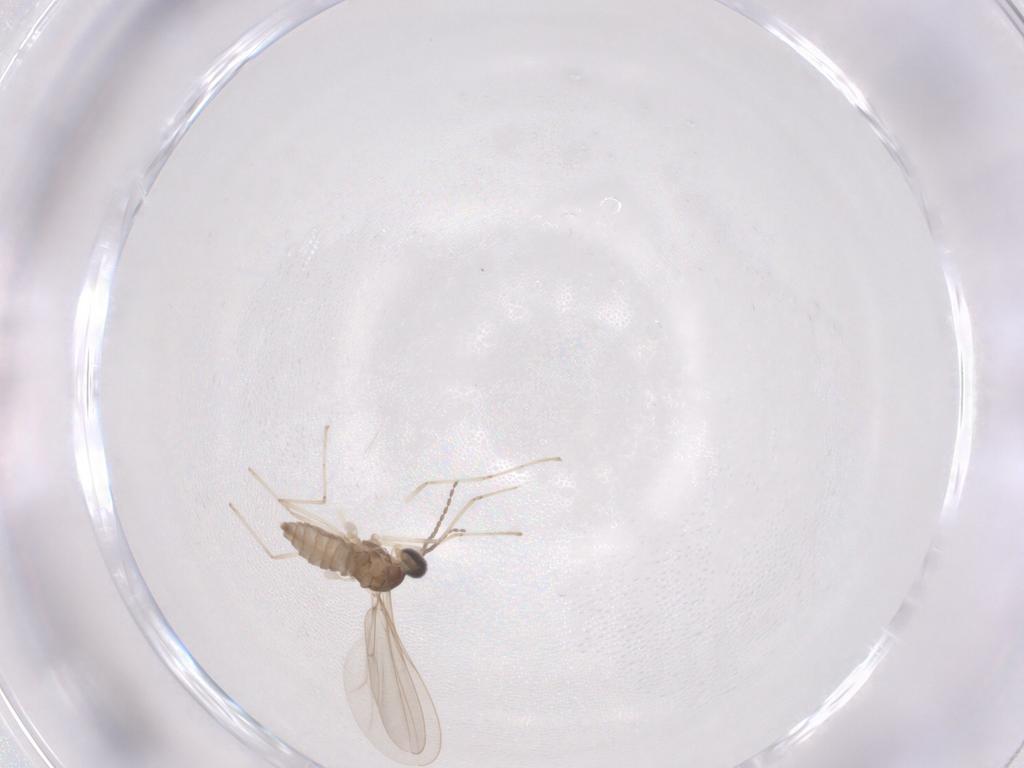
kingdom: Animalia
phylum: Arthropoda
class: Insecta
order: Diptera
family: Cecidomyiidae
